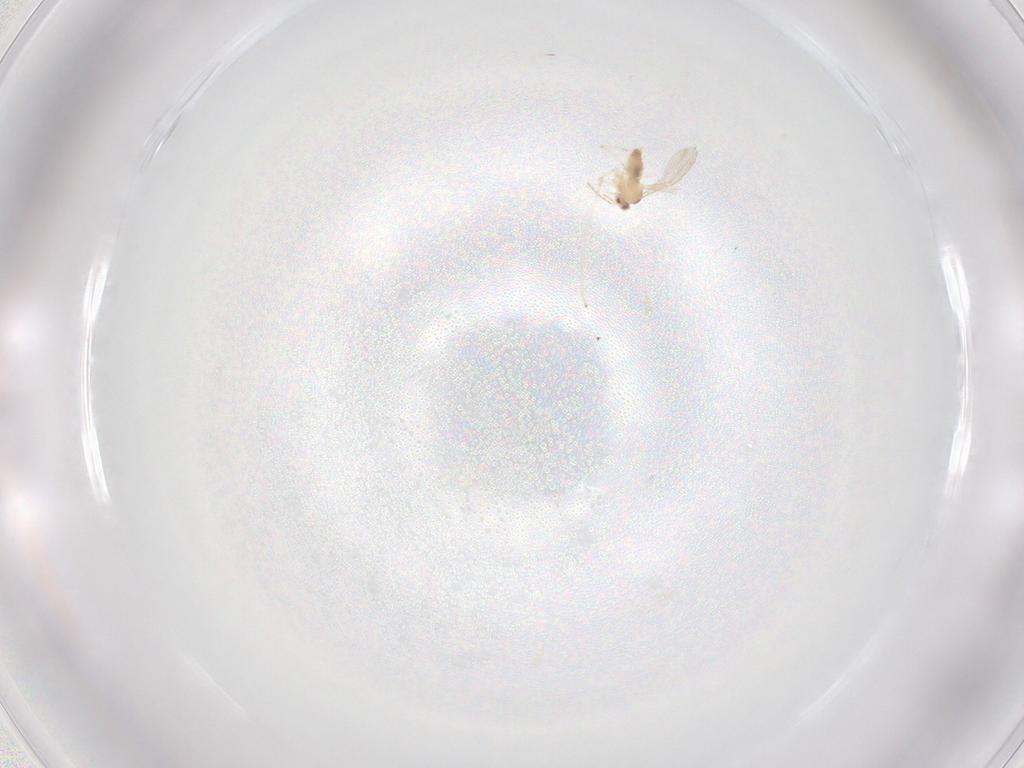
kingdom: Animalia
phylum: Arthropoda
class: Insecta
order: Diptera
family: Cecidomyiidae
